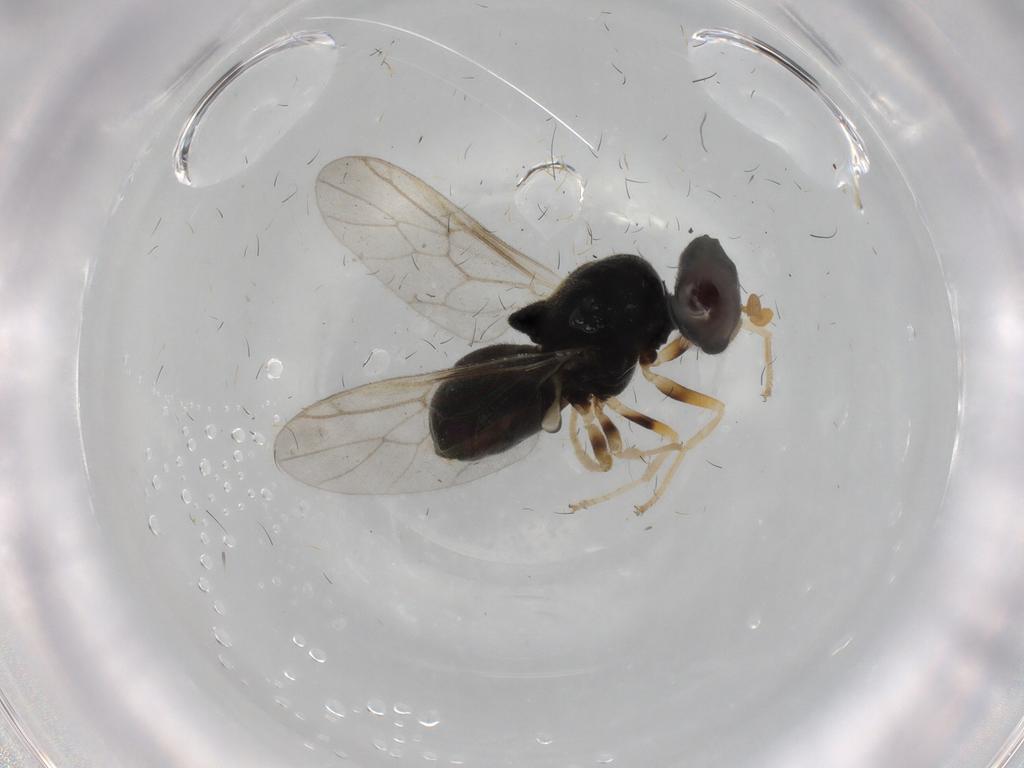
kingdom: Animalia
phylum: Arthropoda
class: Insecta
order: Diptera
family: Stratiomyidae
